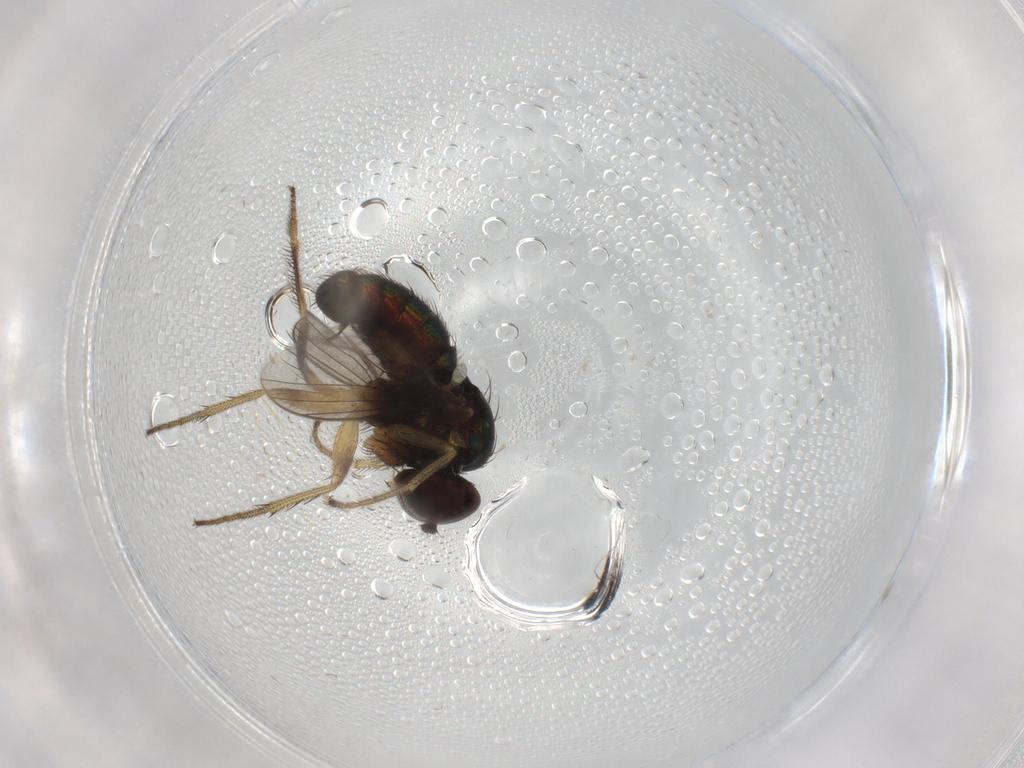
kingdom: Animalia
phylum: Arthropoda
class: Insecta
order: Diptera
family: Dolichopodidae
